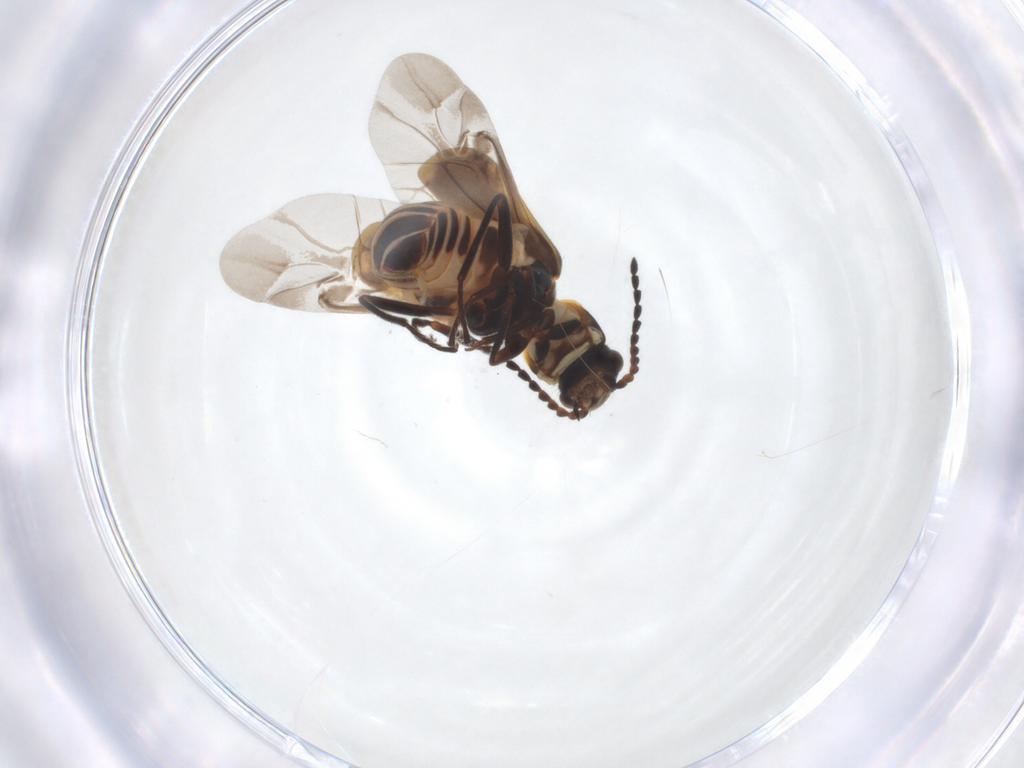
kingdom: Animalia
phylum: Arthropoda
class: Insecta
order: Coleoptera
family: Melyridae
